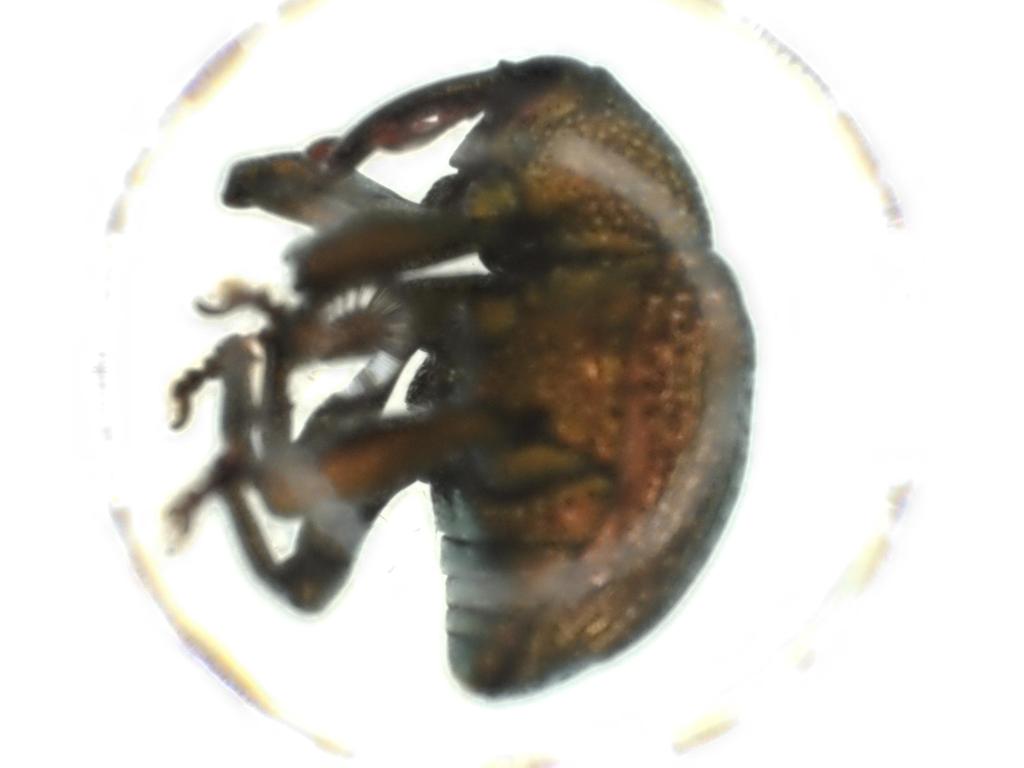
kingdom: Animalia
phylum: Arthropoda
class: Insecta
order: Coleoptera
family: Curculionidae
